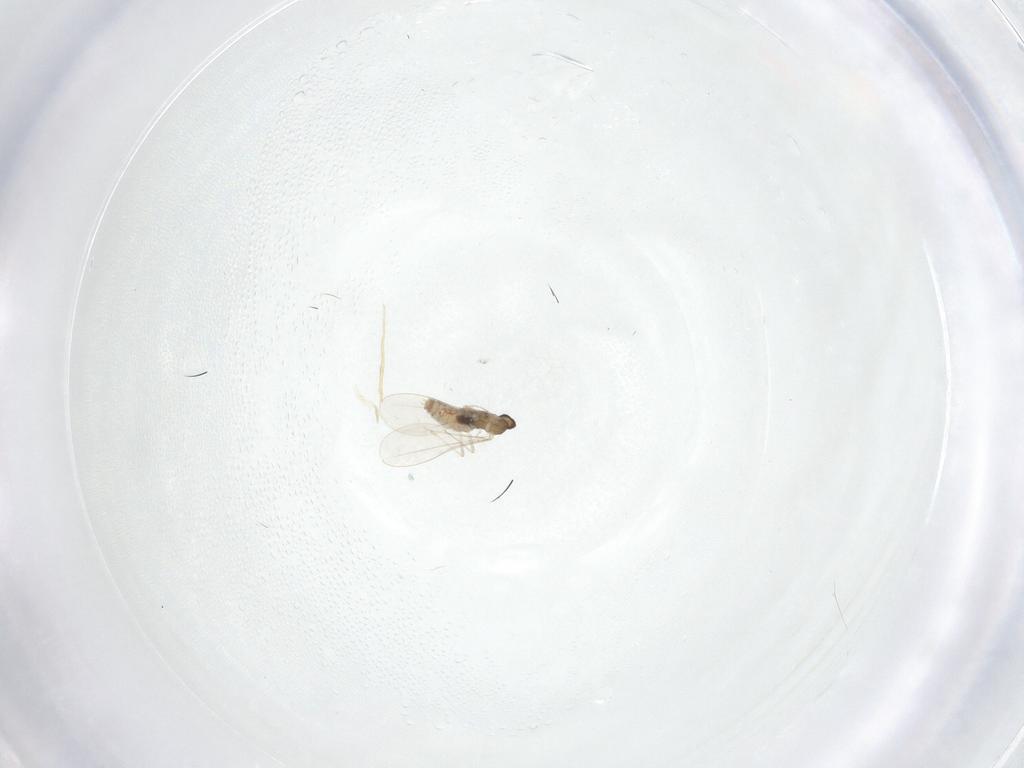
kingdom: Animalia
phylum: Arthropoda
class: Insecta
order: Diptera
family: Cecidomyiidae
